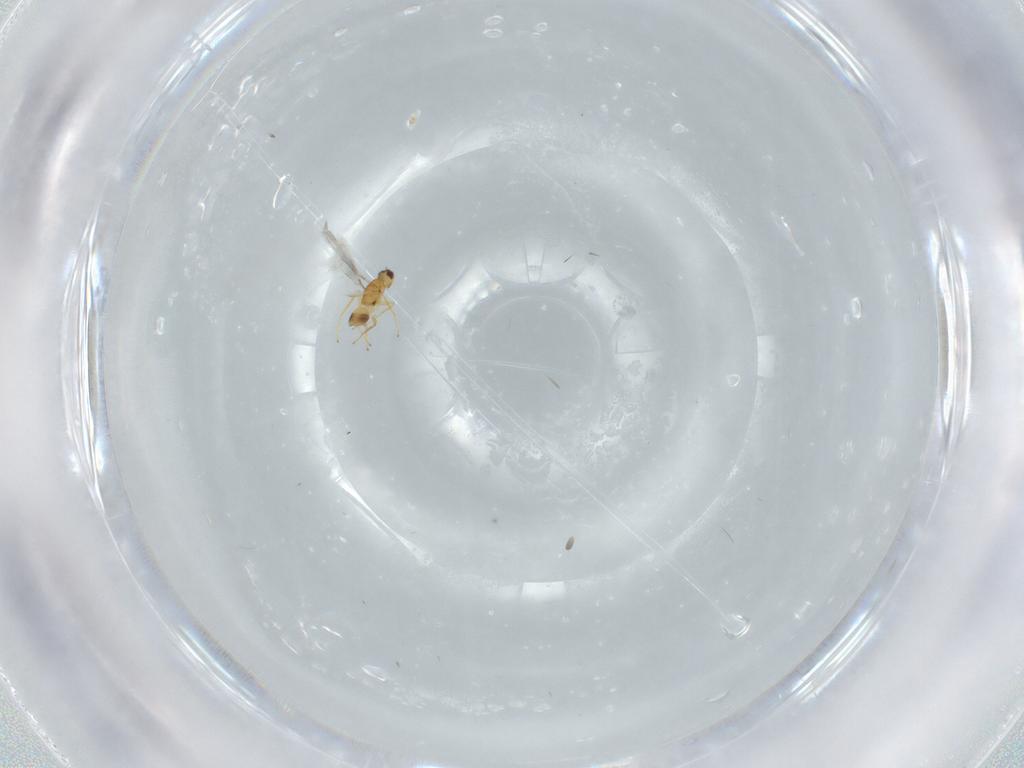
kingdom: Animalia
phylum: Arthropoda
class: Insecta
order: Hymenoptera
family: Mymaridae
